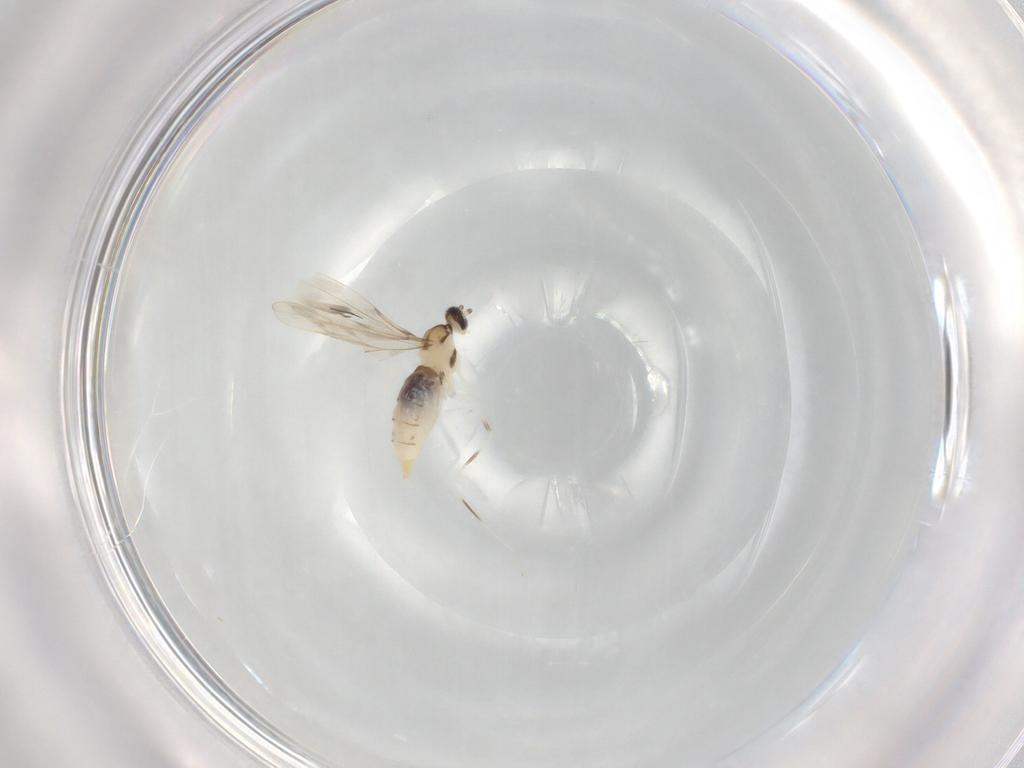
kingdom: Animalia
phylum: Arthropoda
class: Insecta
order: Diptera
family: Cecidomyiidae
